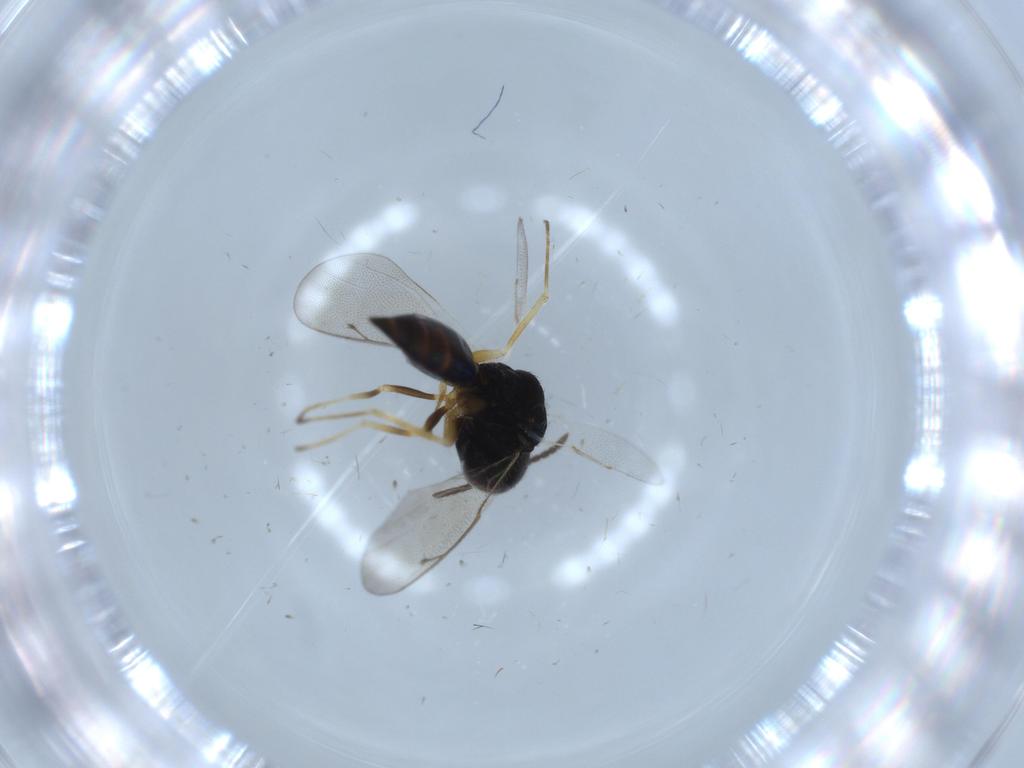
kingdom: Animalia
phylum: Arthropoda
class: Insecta
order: Hymenoptera
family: Pteromalidae
